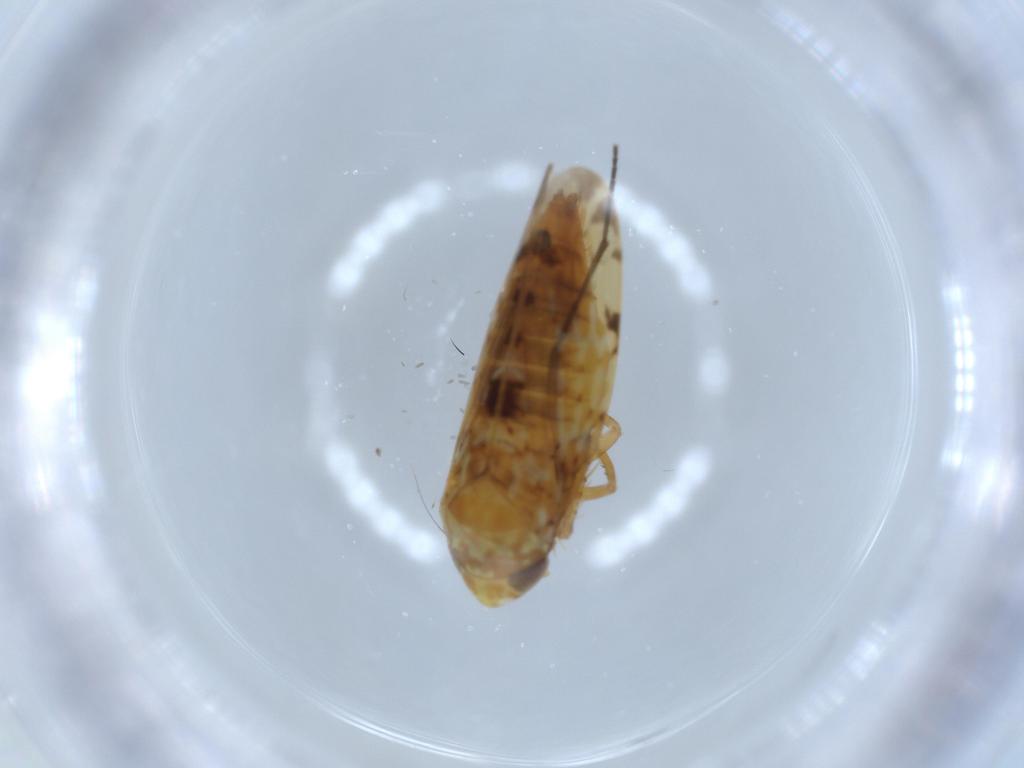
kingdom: Animalia
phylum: Arthropoda
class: Insecta
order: Hemiptera
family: Cicadellidae
